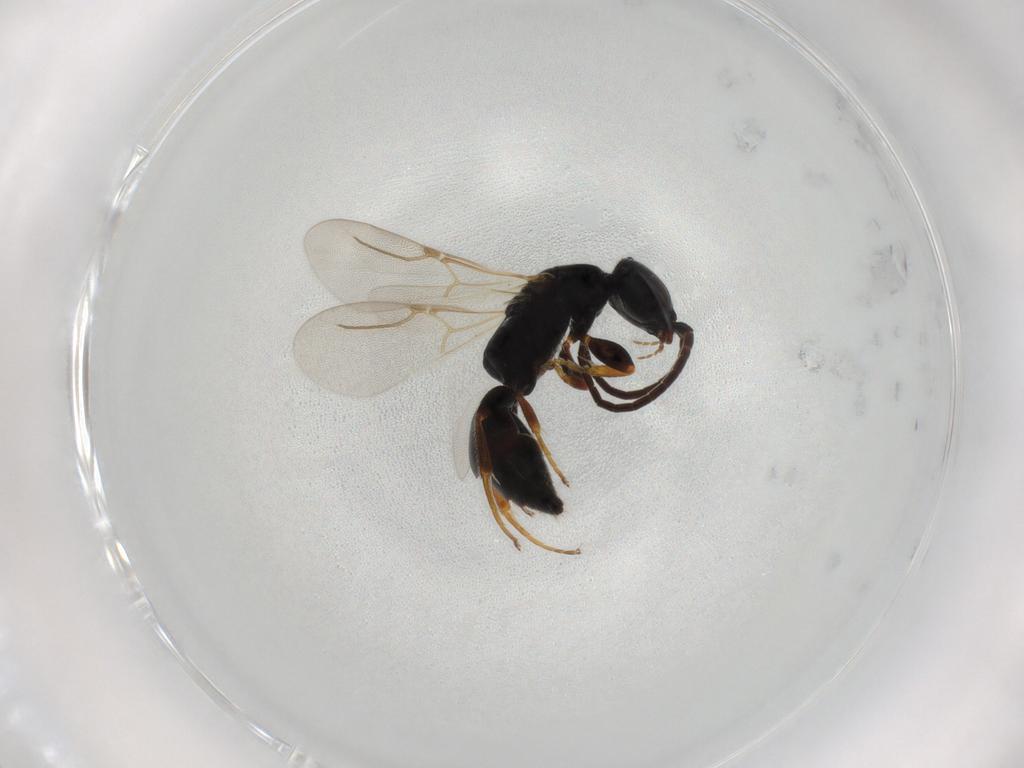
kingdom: Animalia
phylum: Arthropoda
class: Insecta
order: Hymenoptera
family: Bethylidae
